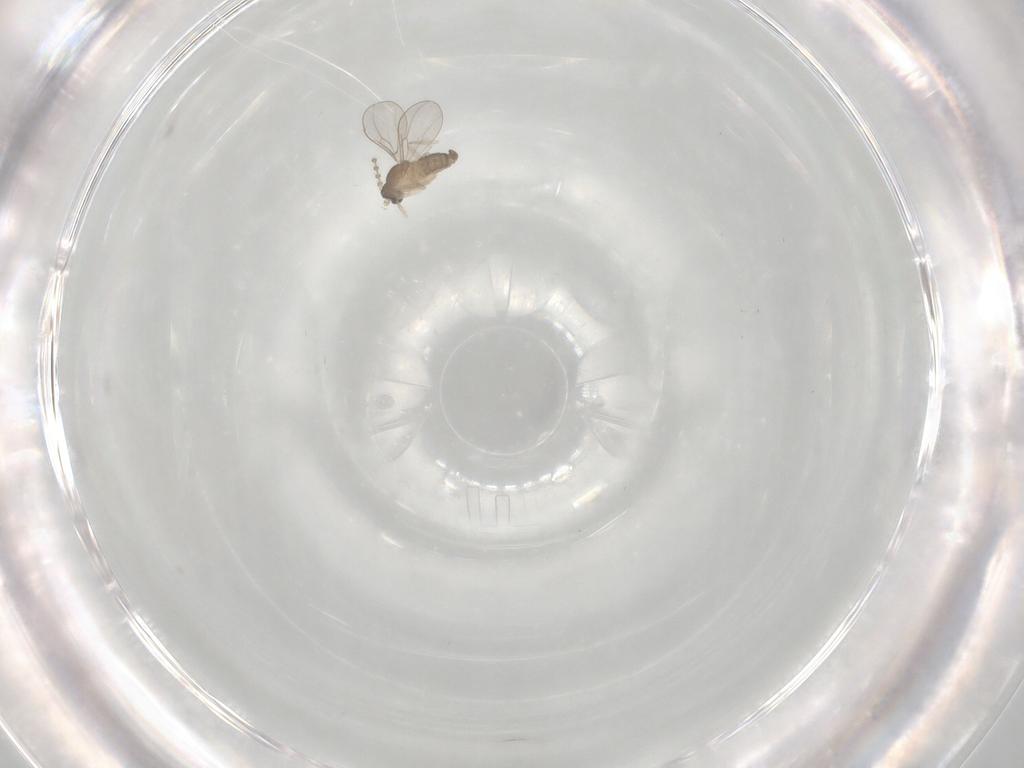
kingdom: Animalia
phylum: Arthropoda
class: Insecta
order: Diptera
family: Cecidomyiidae
